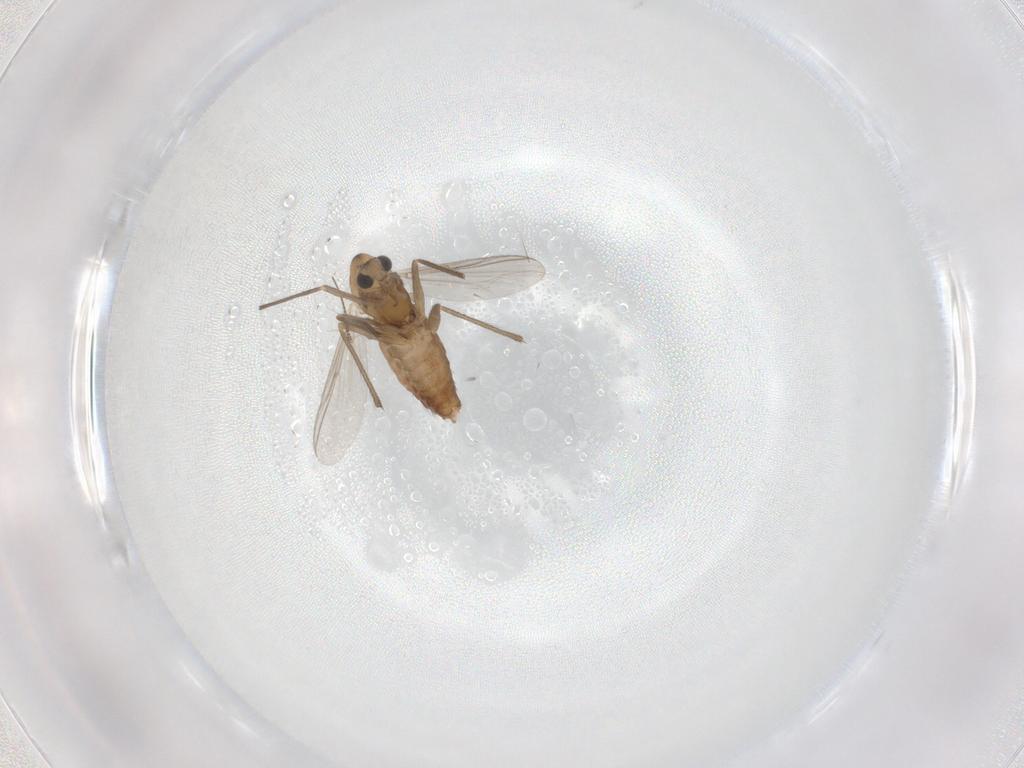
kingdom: Animalia
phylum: Arthropoda
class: Insecta
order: Diptera
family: Chironomidae
